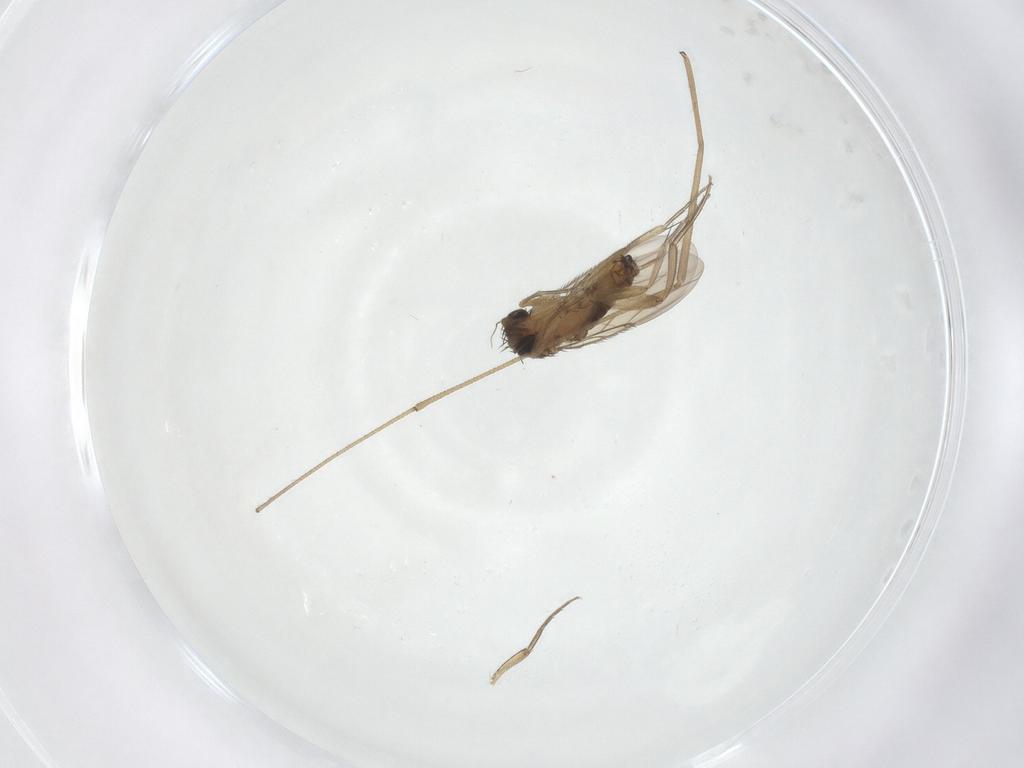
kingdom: Animalia
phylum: Arthropoda
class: Insecta
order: Diptera
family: Phoridae
